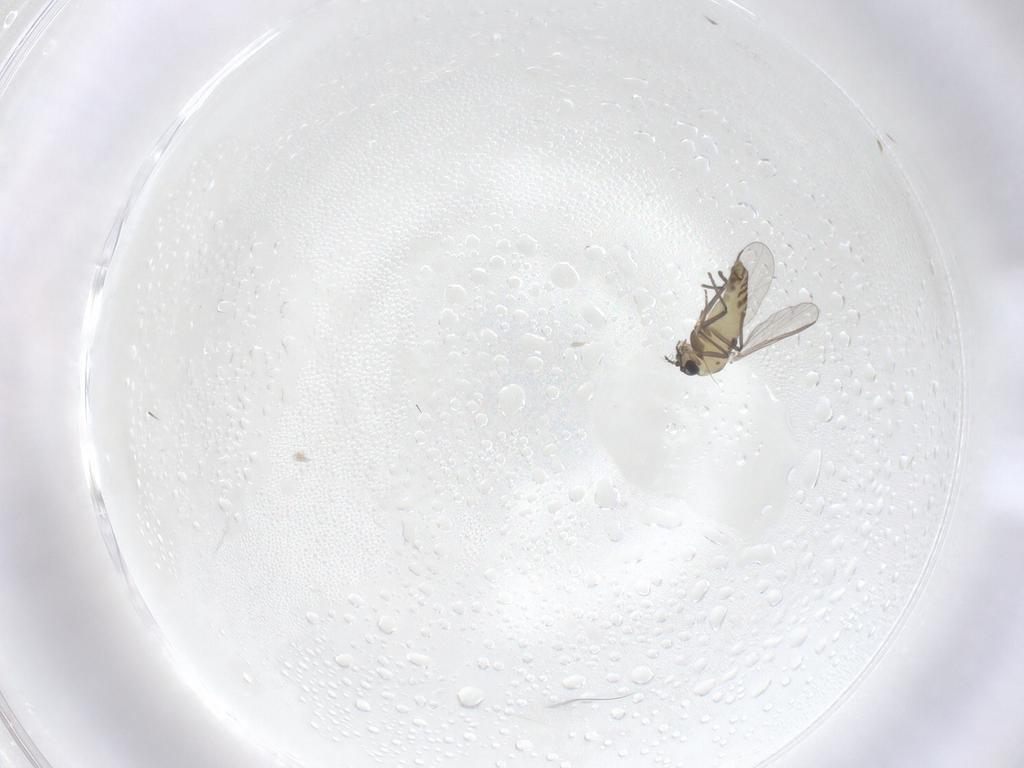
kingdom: Animalia
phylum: Arthropoda
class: Insecta
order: Diptera
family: Chironomidae
